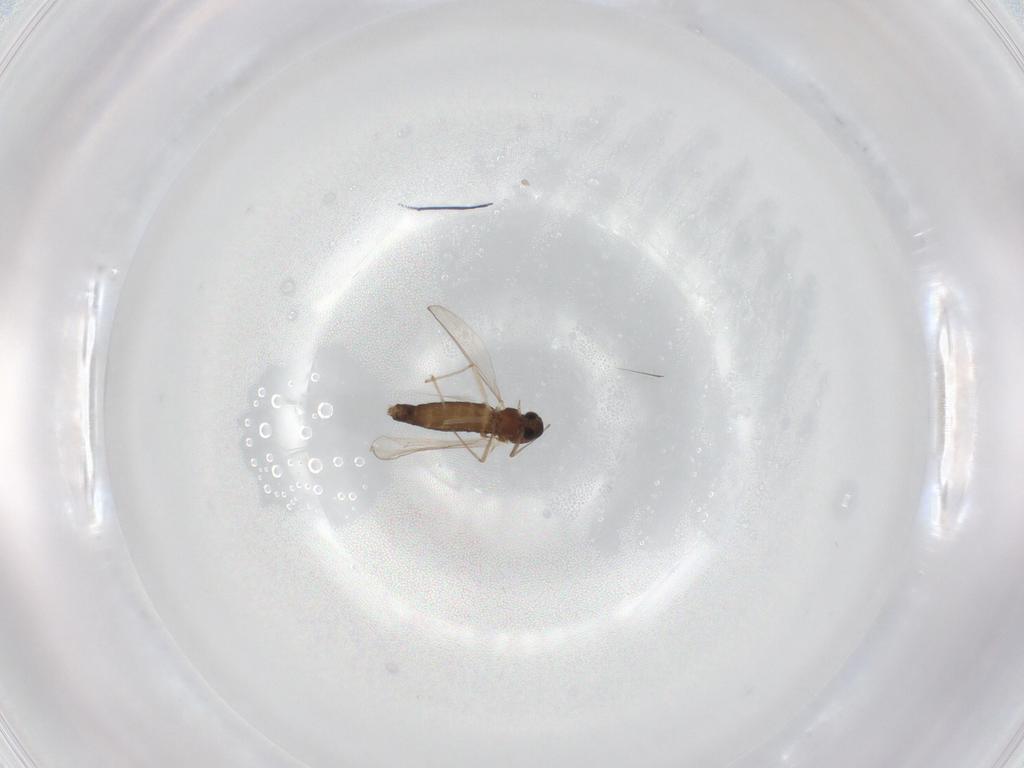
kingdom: Animalia
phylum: Arthropoda
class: Insecta
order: Diptera
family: Chironomidae
